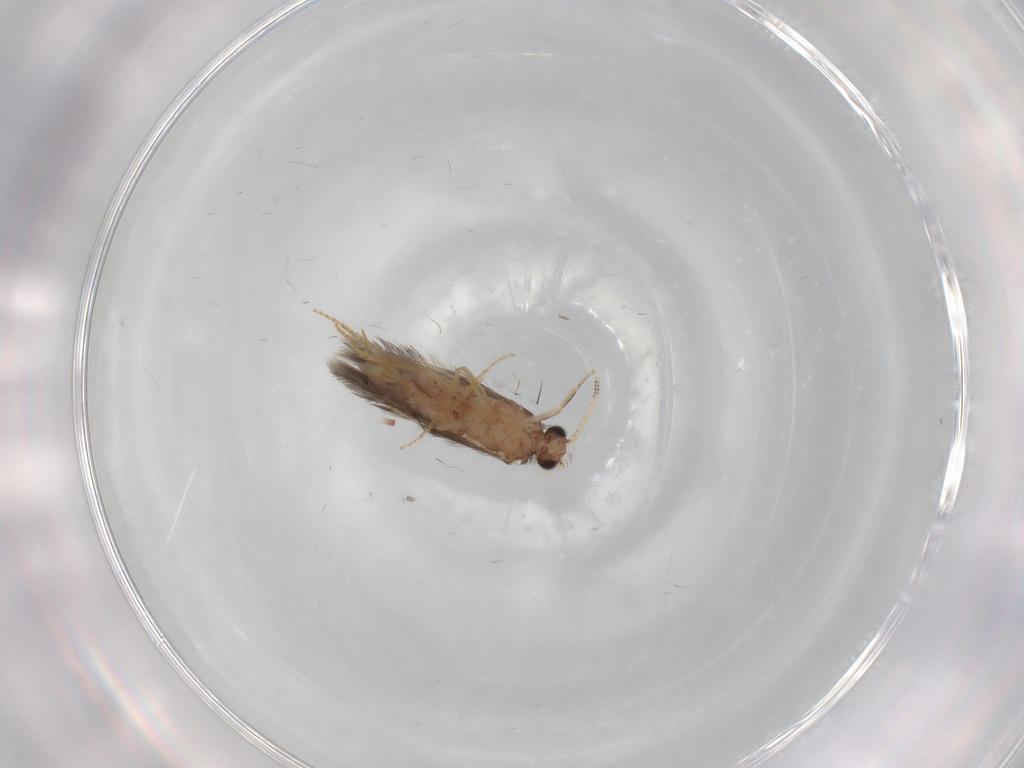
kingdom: Animalia
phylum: Arthropoda
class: Insecta
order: Trichoptera
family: Hydroptilidae
